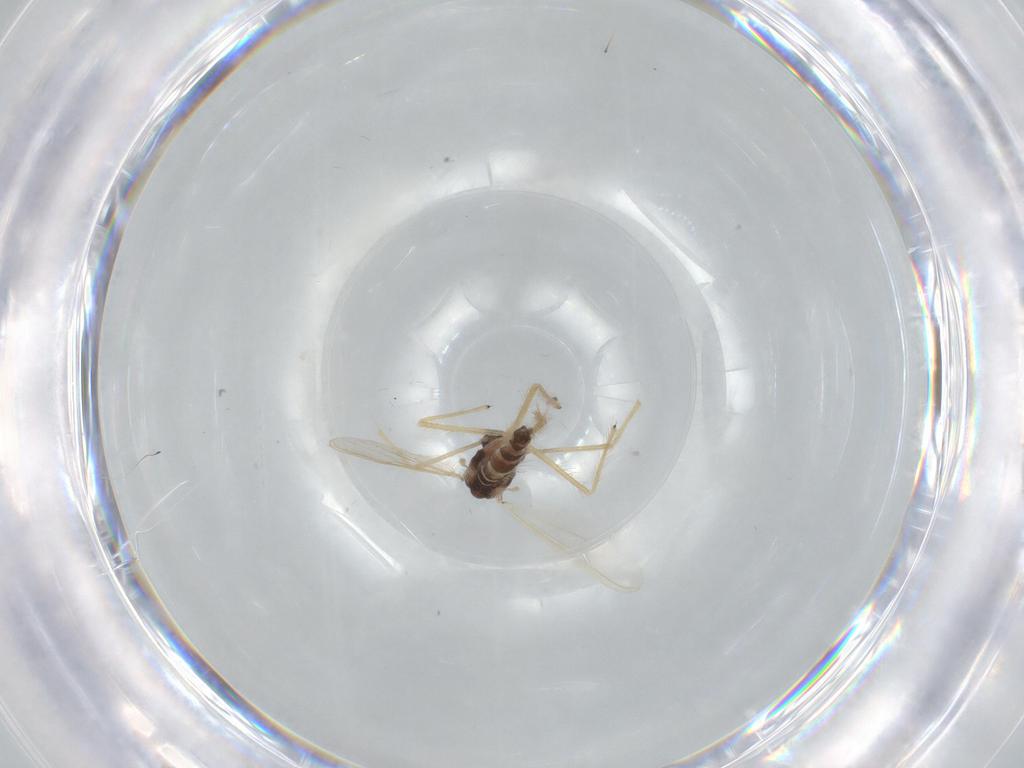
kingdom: Animalia
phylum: Arthropoda
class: Insecta
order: Diptera
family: Chironomidae
